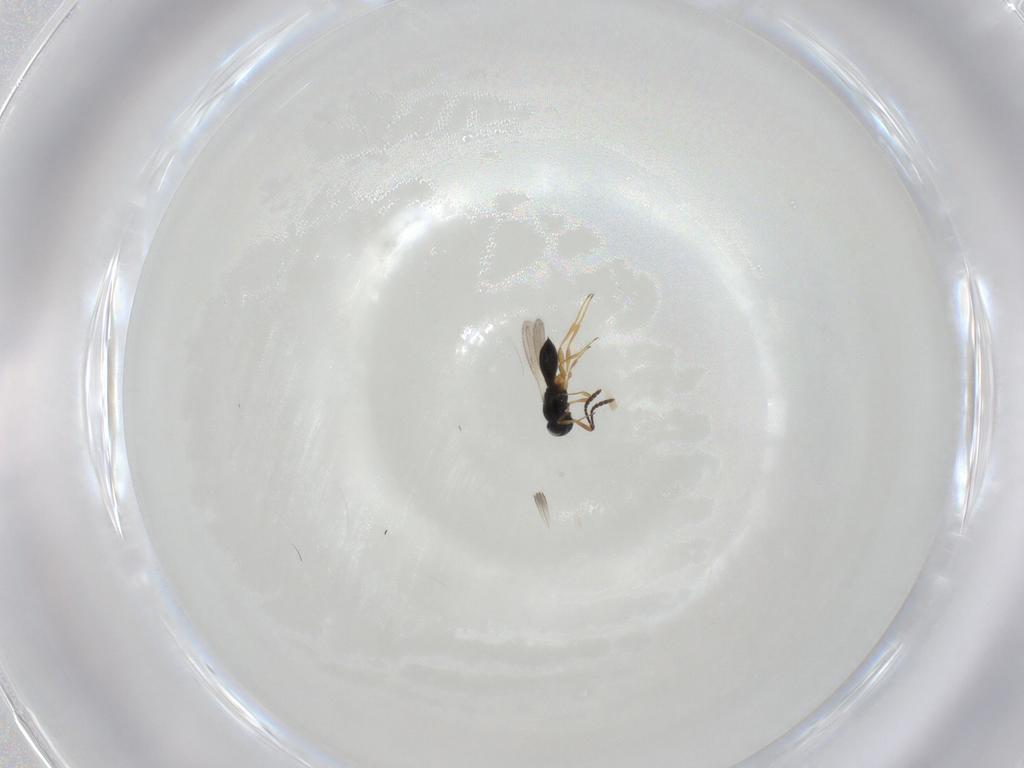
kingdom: Animalia
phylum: Arthropoda
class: Insecta
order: Hymenoptera
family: Scelionidae
